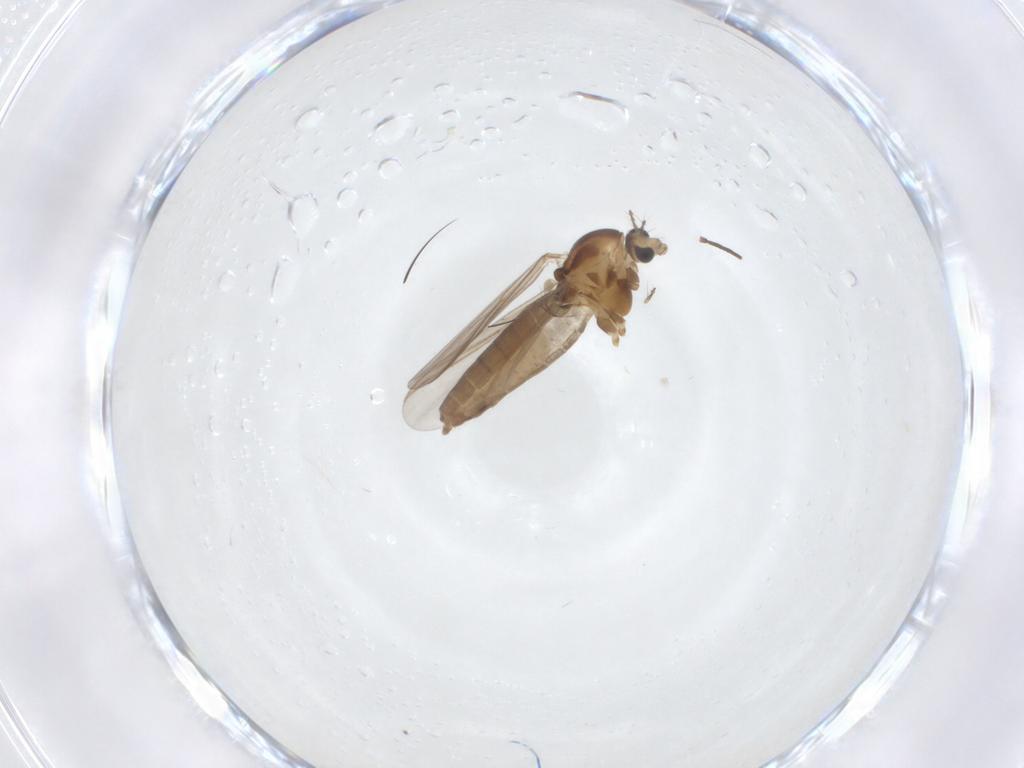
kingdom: Animalia
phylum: Arthropoda
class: Insecta
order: Diptera
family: Chironomidae
